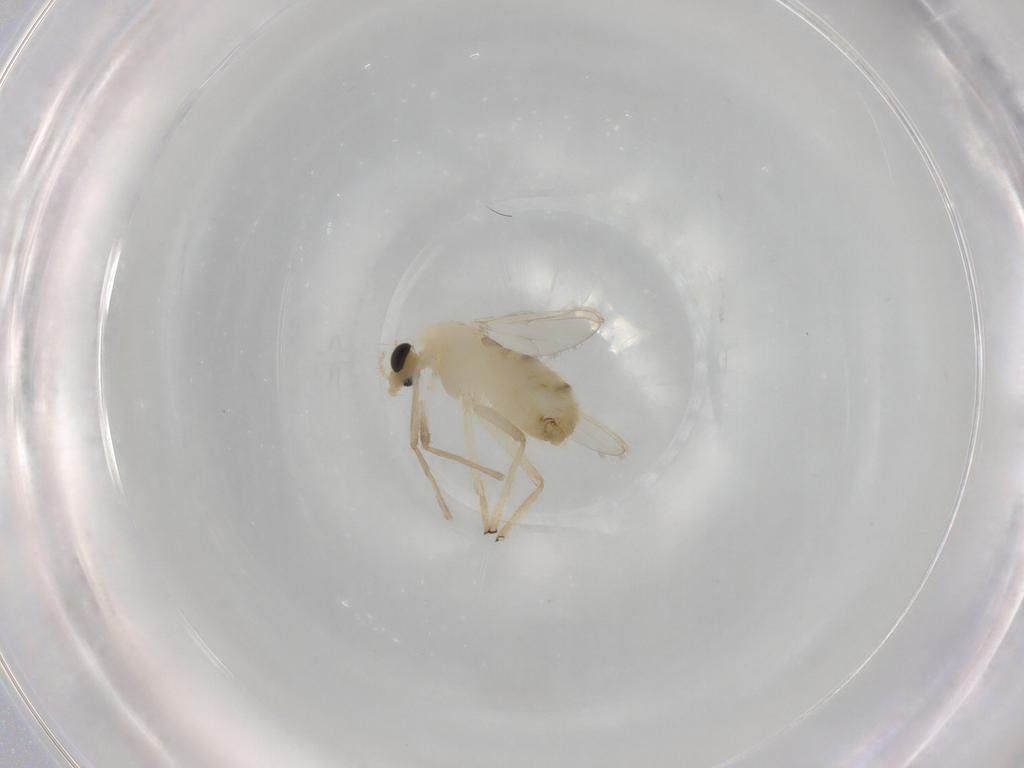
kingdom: Animalia
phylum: Arthropoda
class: Insecta
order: Diptera
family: Chironomidae
